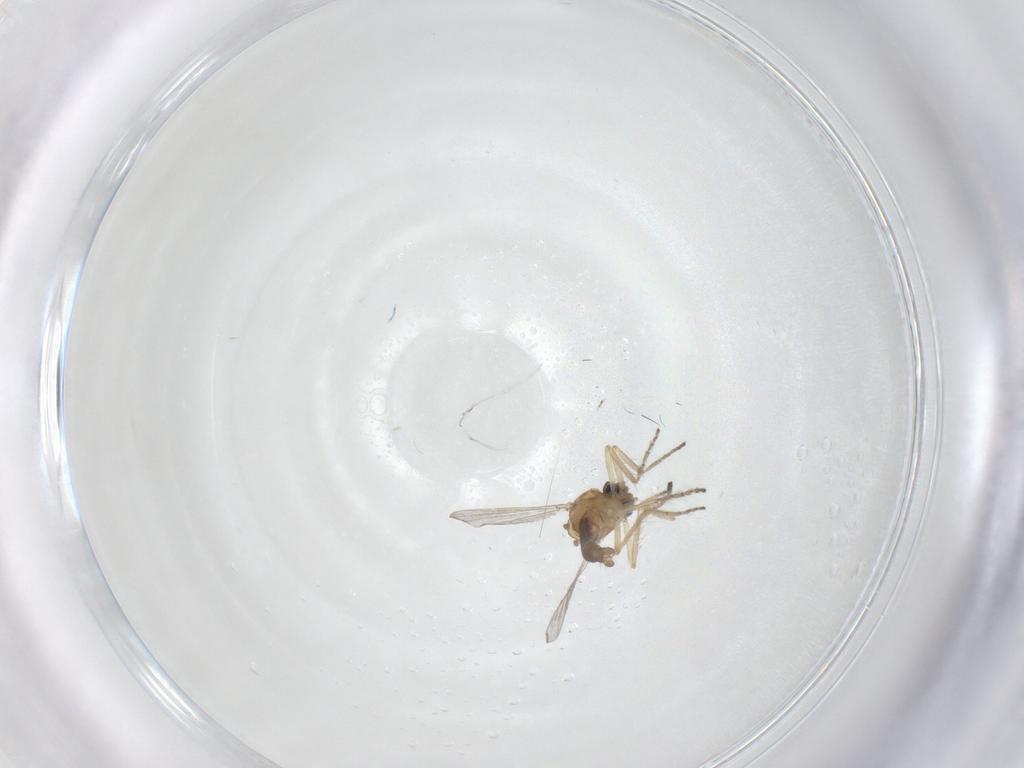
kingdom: Animalia
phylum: Arthropoda
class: Insecta
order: Diptera
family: Ceratopogonidae
